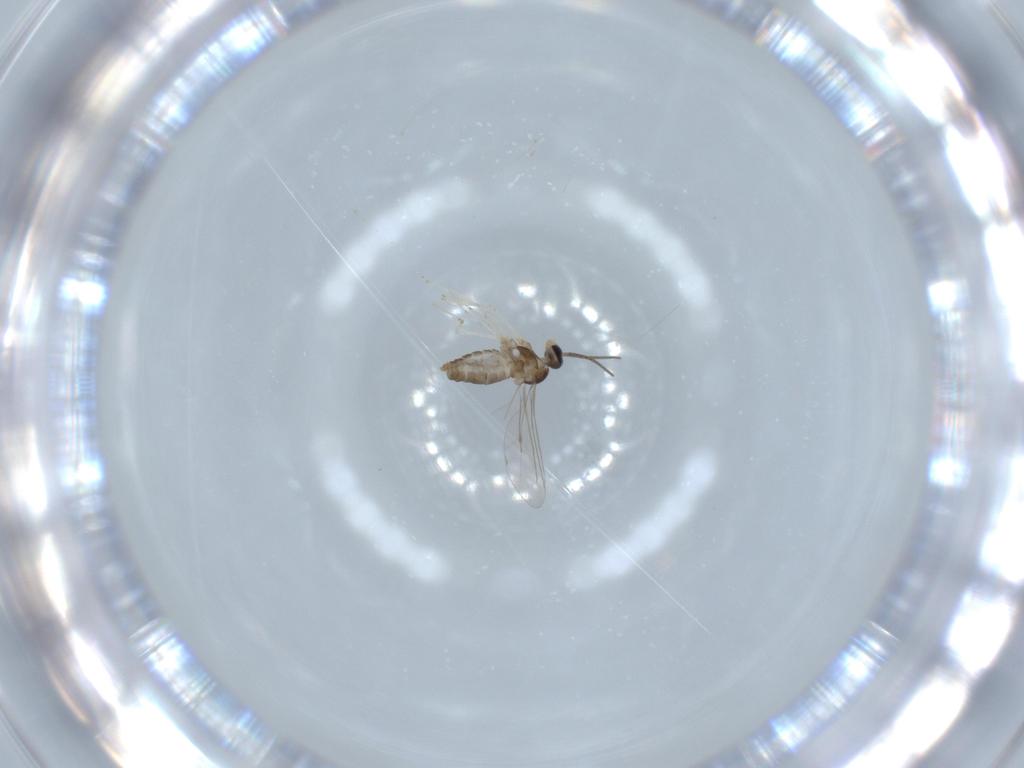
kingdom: Animalia
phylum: Arthropoda
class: Insecta
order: Diptera
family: Cecidomyiidae
